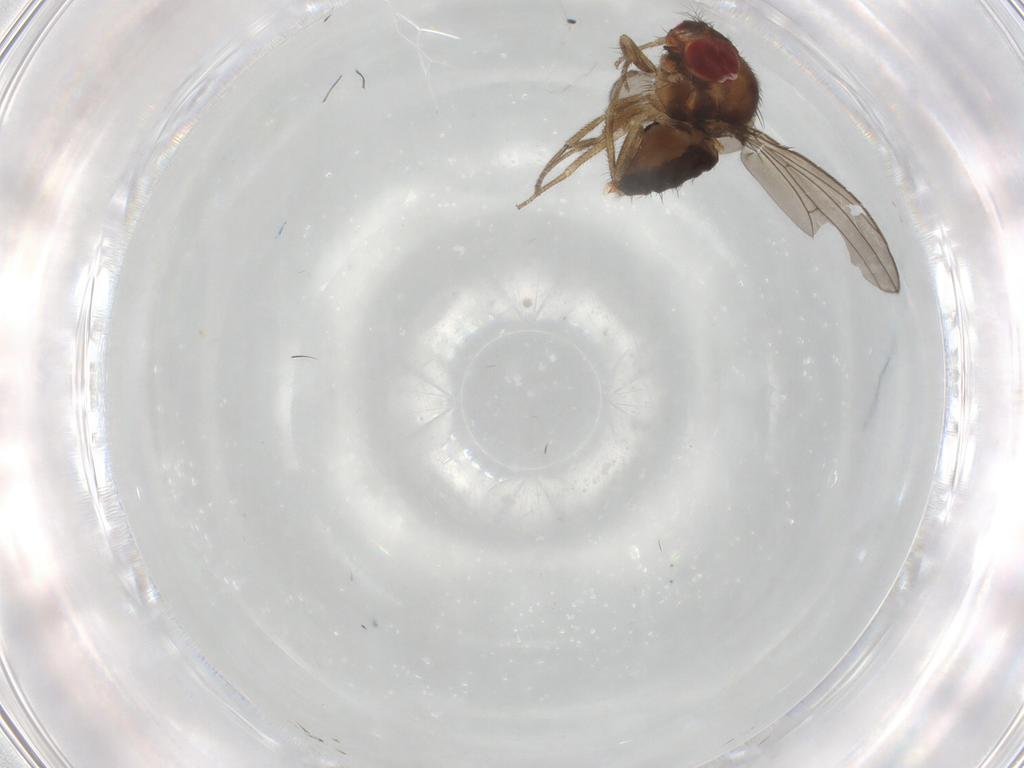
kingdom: Animalia
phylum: Arthropoda
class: Insecta
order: Diptera
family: Drosophilidae
